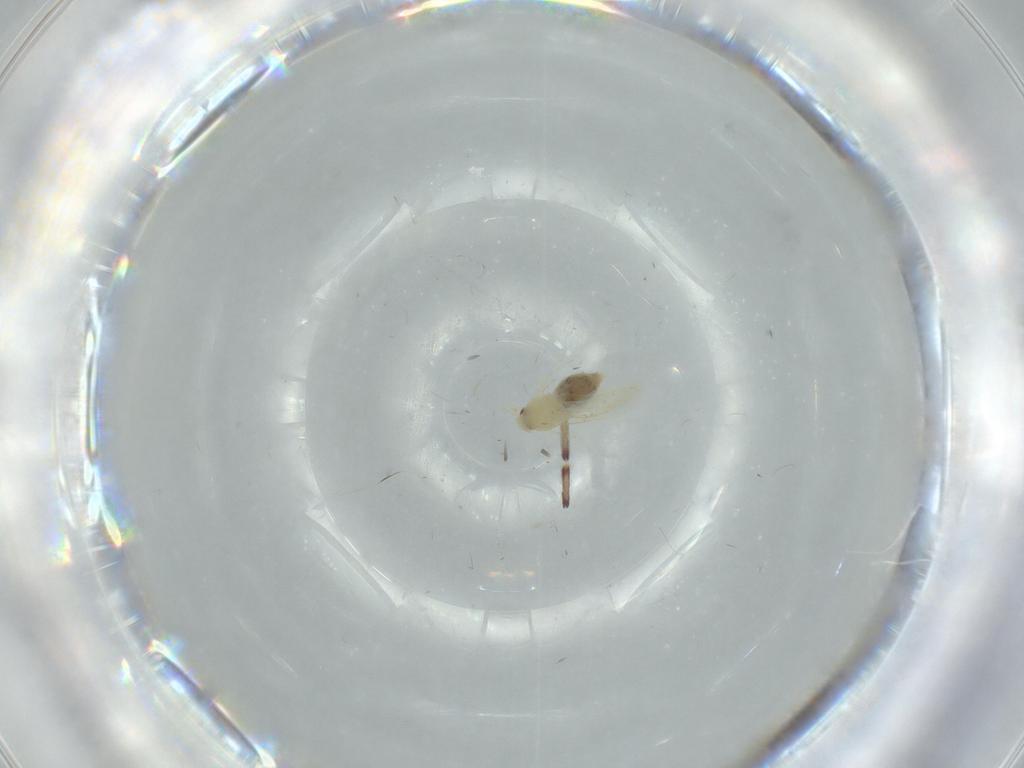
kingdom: Animalia
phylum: Arthropoda
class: Insecta
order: Hemiptera
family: Aleyrodidae
